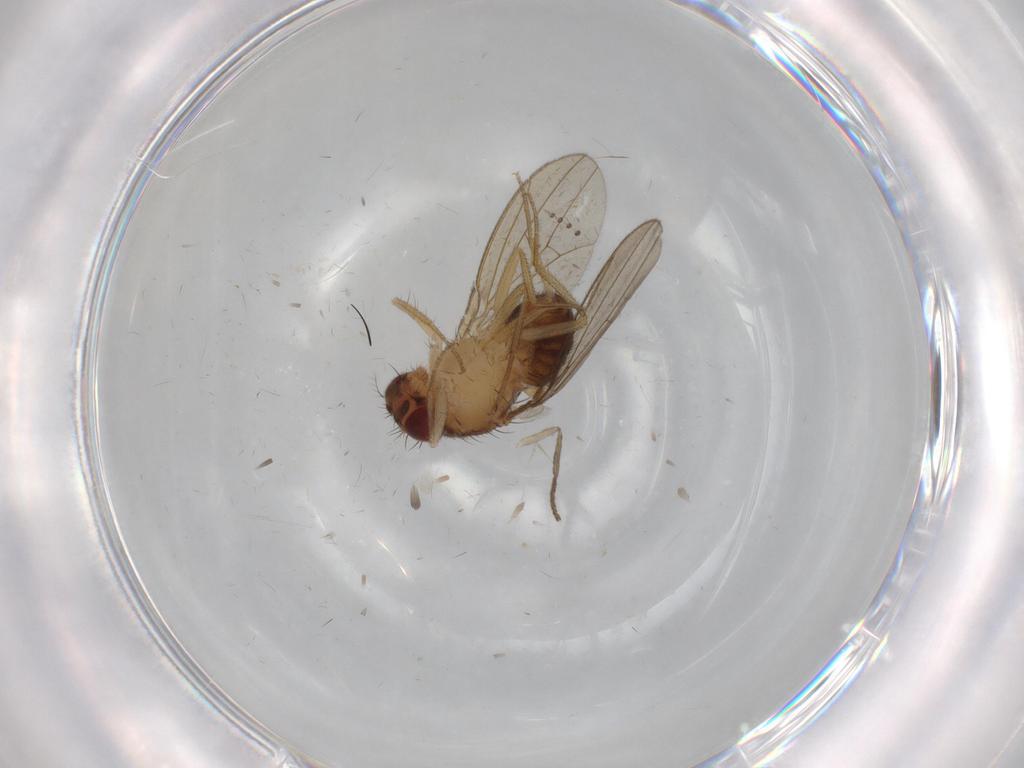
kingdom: Animalia
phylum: Arthropoda
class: Insecta
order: Diptera
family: Drosophilidae
